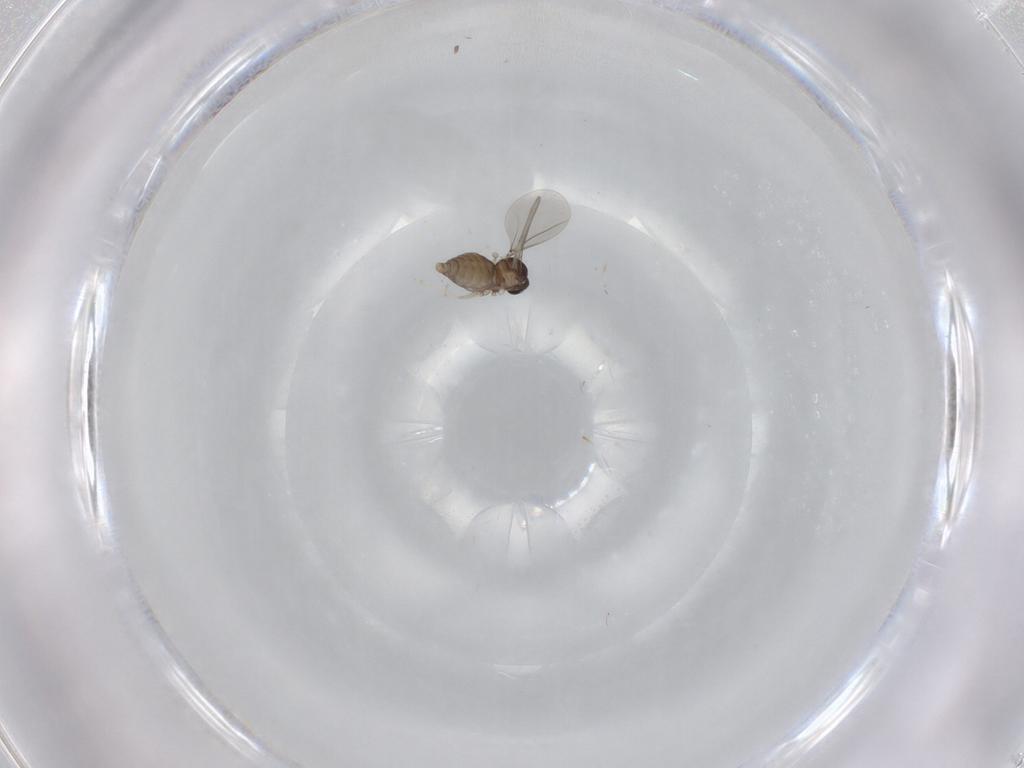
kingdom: Animalia
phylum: Arthropoda
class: Insecta
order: Diptera
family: Cecidomyiidae
